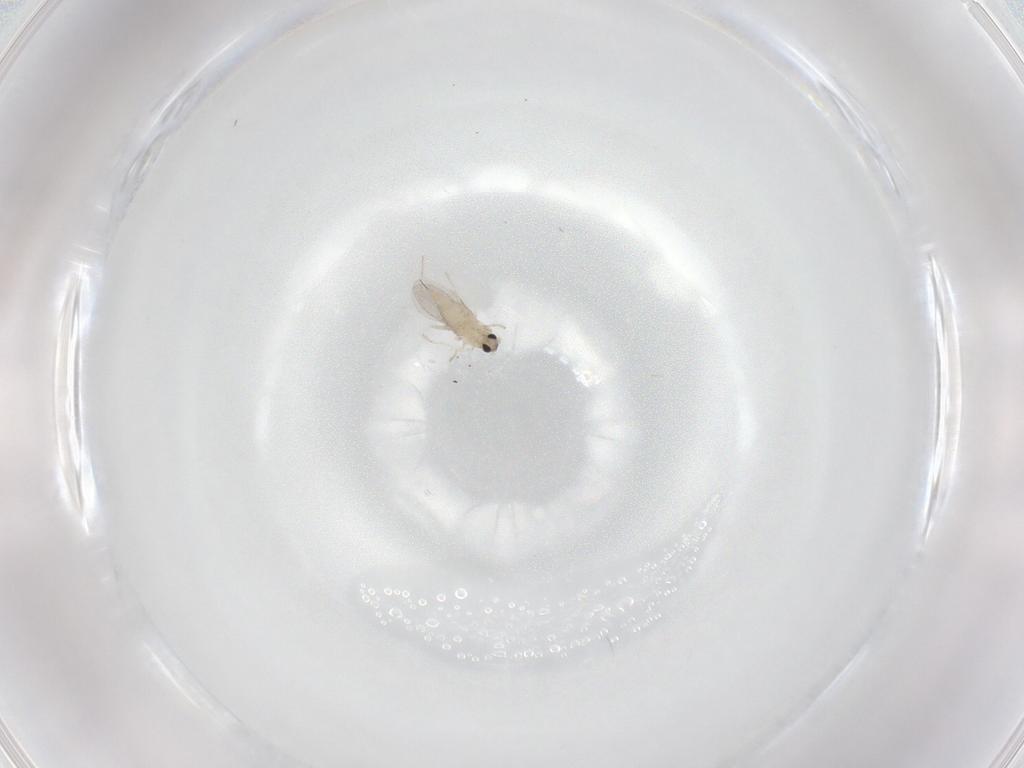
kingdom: Animalia
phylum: Arthropoda
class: Insecta
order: Diptera
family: Cecidomyiidae
